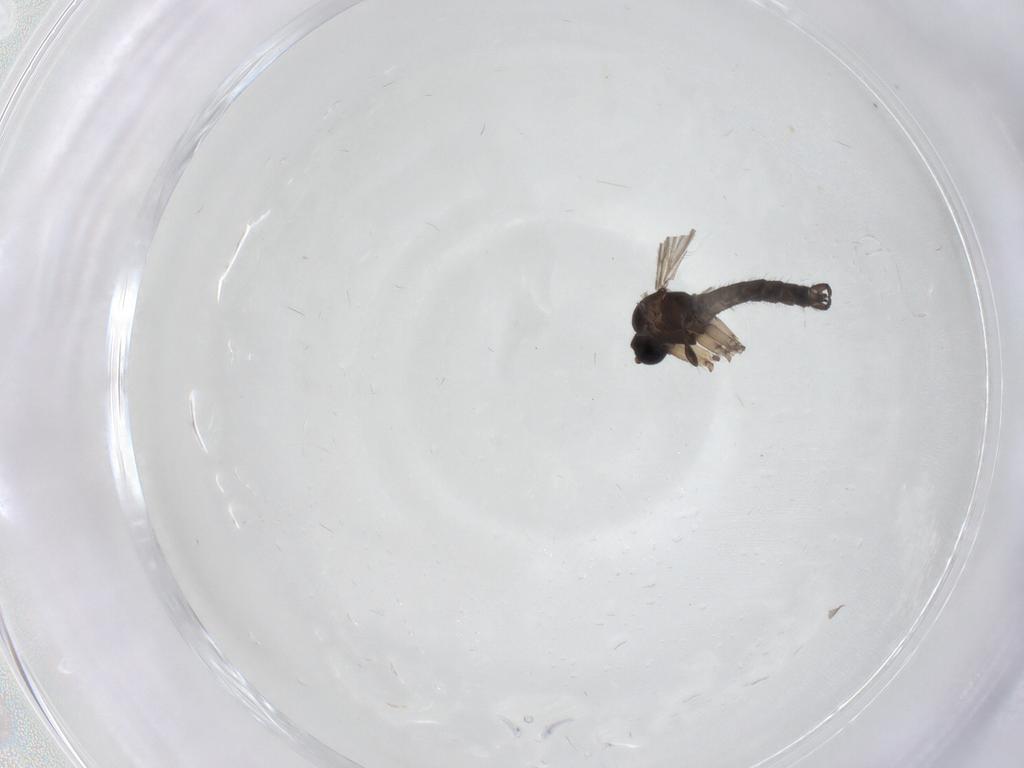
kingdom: Animalia
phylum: Arthropoda
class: Insecta
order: Diptera
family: Sciaridae
